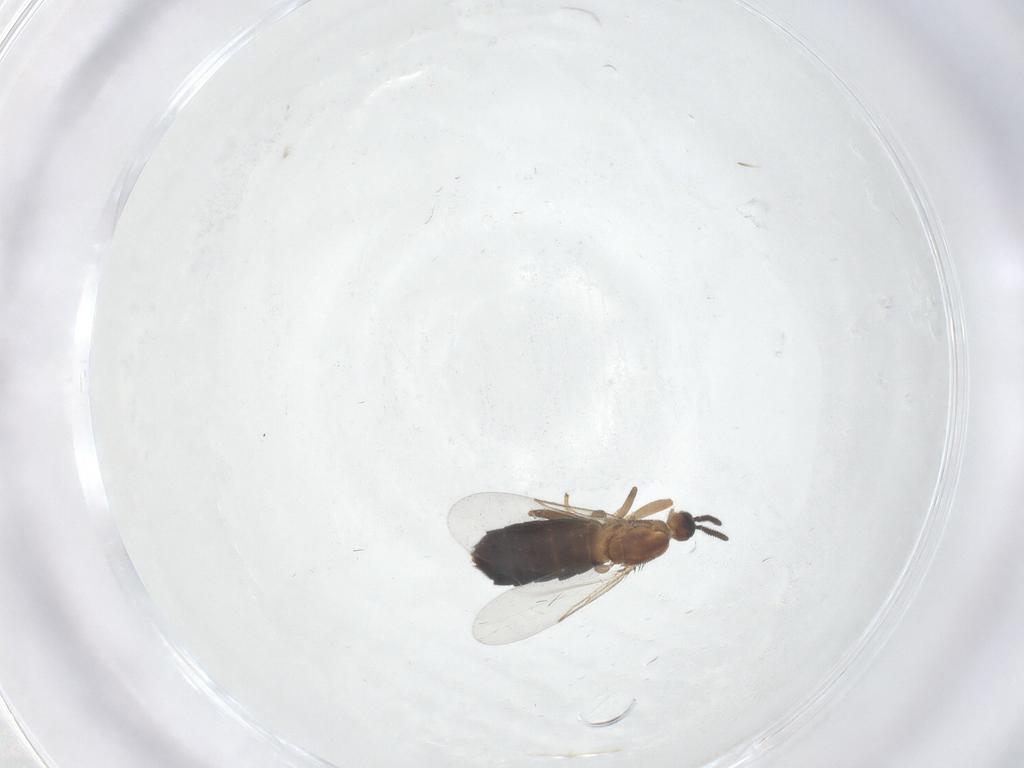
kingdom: Animalia
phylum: Arthropoda
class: Insecta
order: Diptera
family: Scatopsidae
